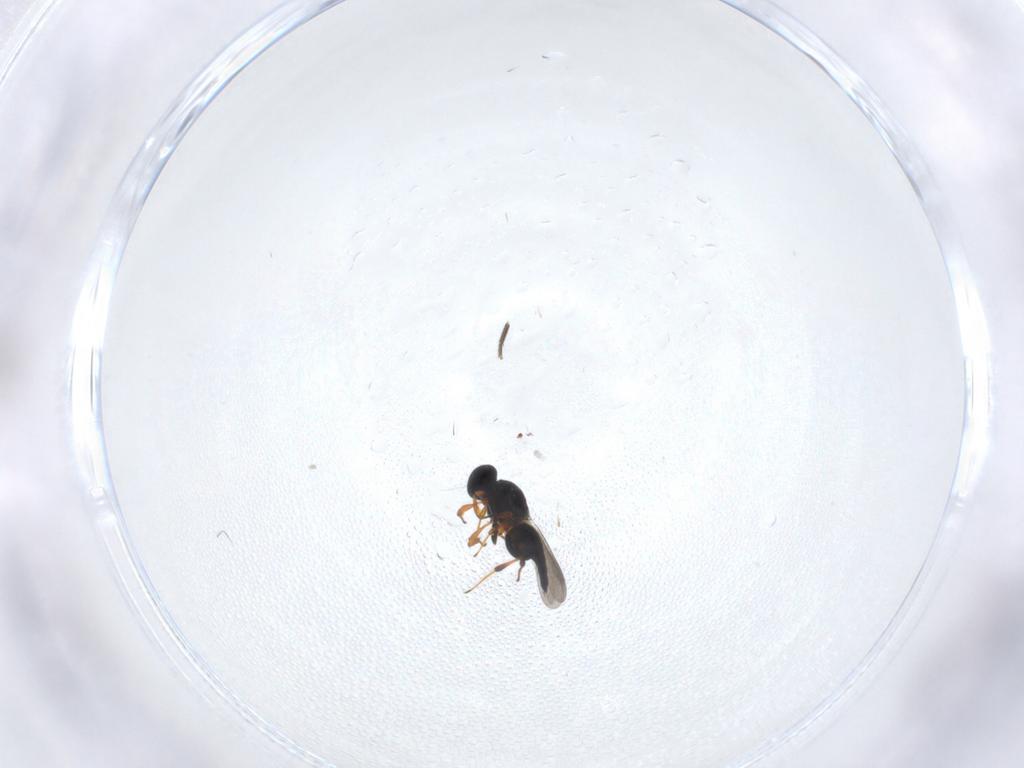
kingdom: Animalia
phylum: Arthropoda
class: Insecta
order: Hymenoptera
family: Platygastridae
